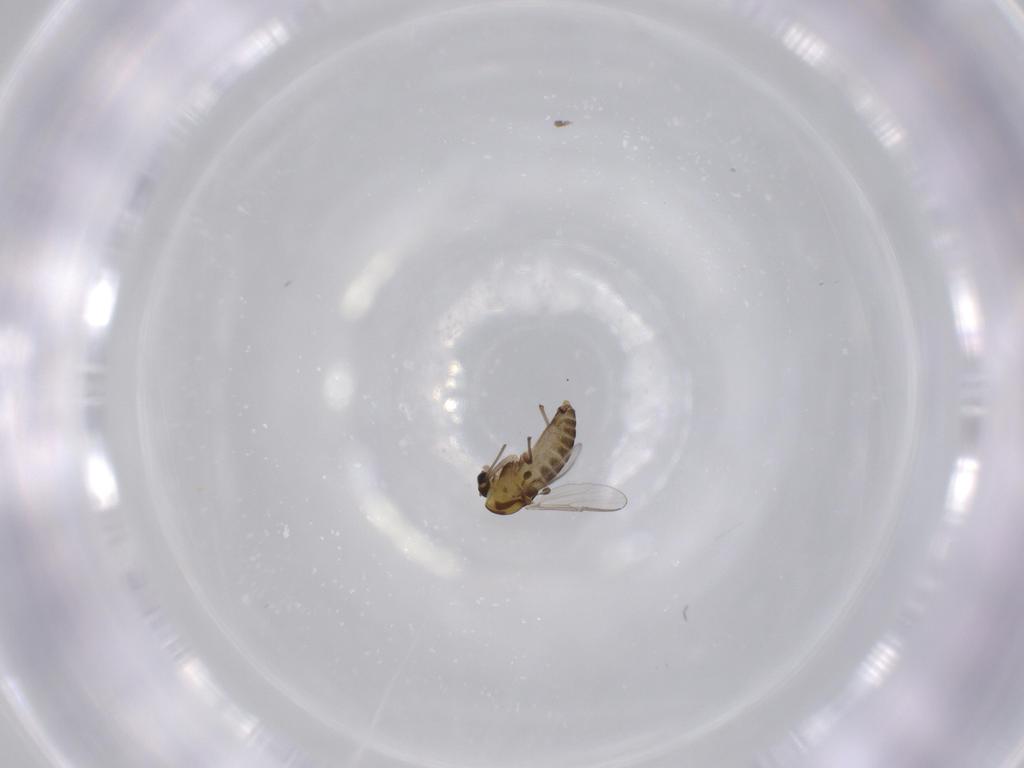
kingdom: Animalia
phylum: Arthropoda
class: Insecta
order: Diptera
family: Chironomidae
